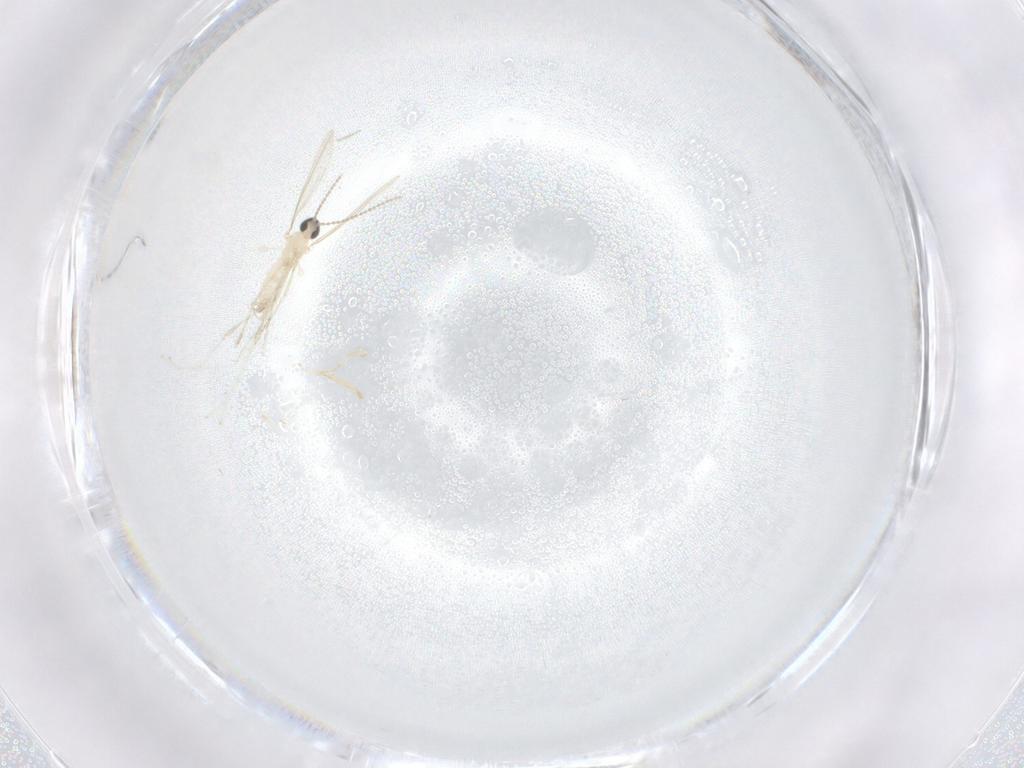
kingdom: Animalia
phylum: Arthropoda
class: Insecta
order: Diptera
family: Cecidomyiidae
